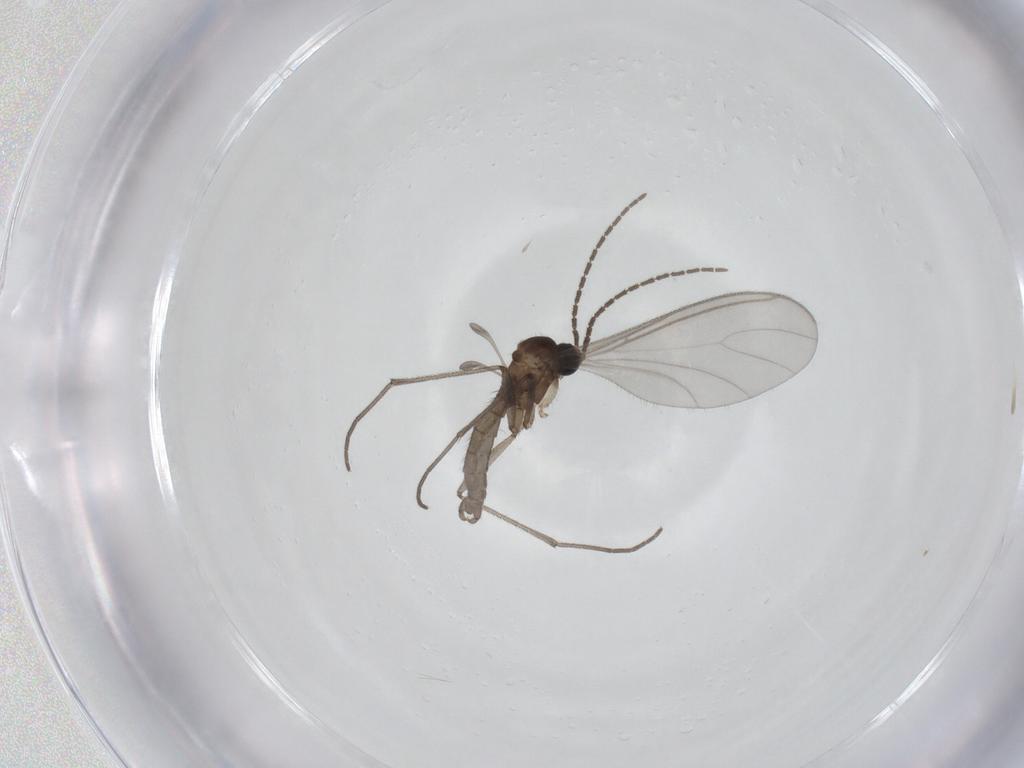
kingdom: Animalia
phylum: Arthropoda
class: Insecta
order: Diptera
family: Sciaridae
